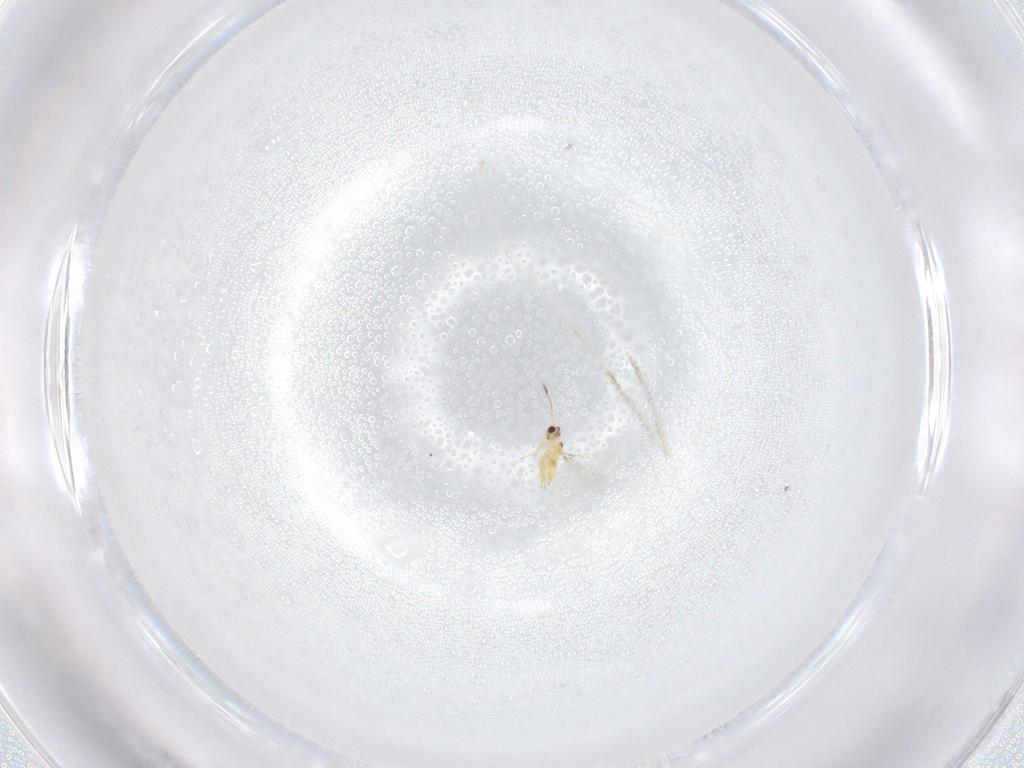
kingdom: Animalia
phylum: Arthropoda
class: Insecta
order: Hymenoptera
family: Mymaridae
